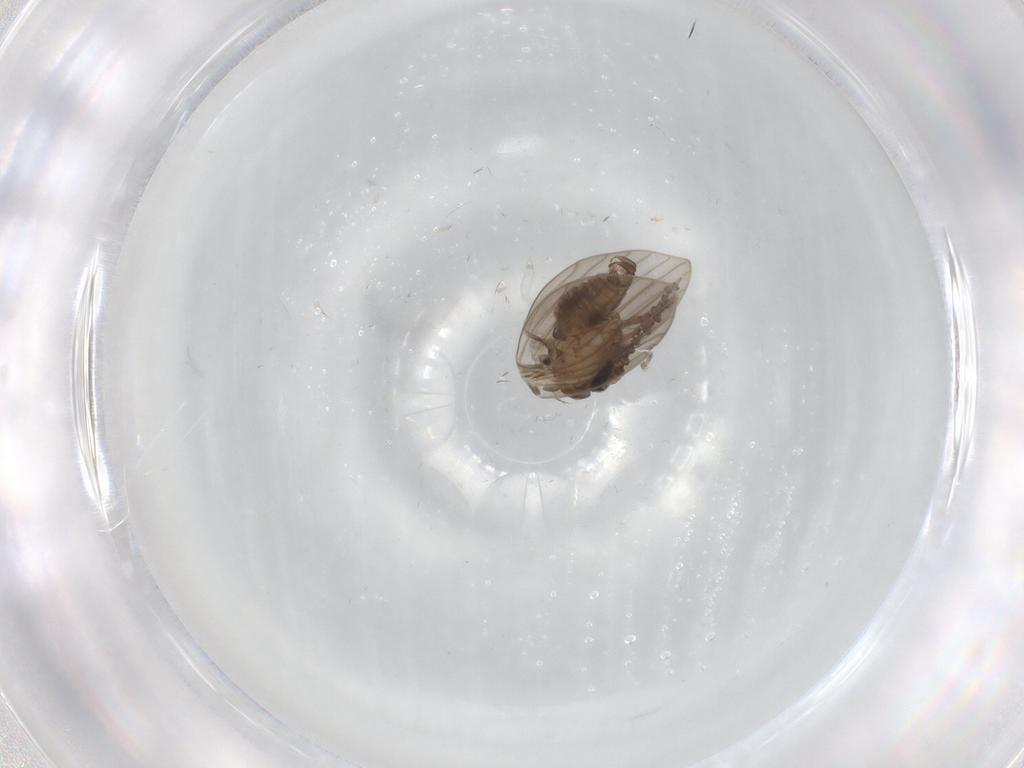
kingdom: Animalia
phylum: Arthropoda
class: Insecta
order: Diptera
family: Psychodidae
